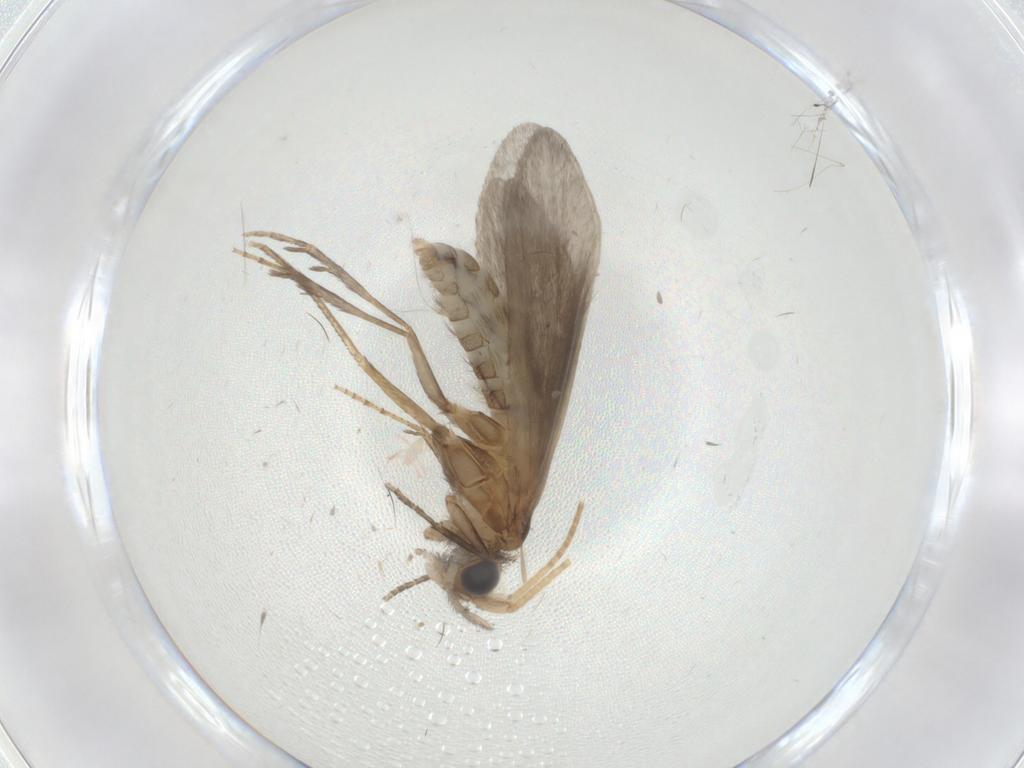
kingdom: Animalia
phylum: Arthropoda
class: Insecta
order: Trichoptera
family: Helicopsychidae
